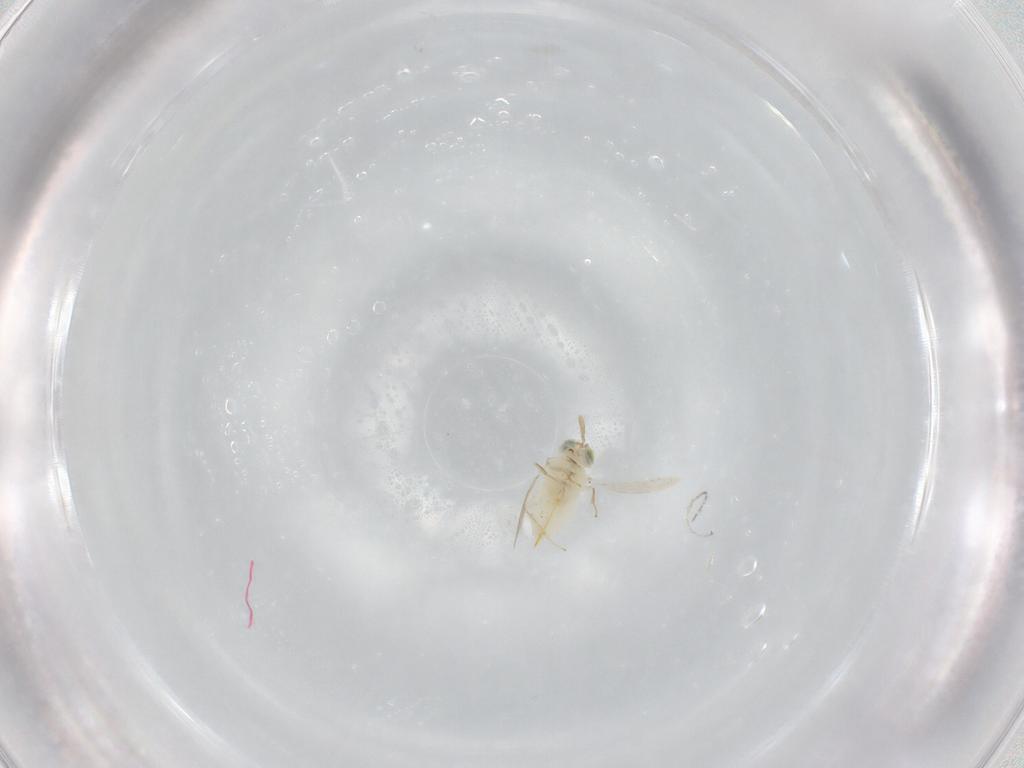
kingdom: Animalia
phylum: Arthropoda
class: Insecta
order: Hymenoptera
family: Aphelinidae
